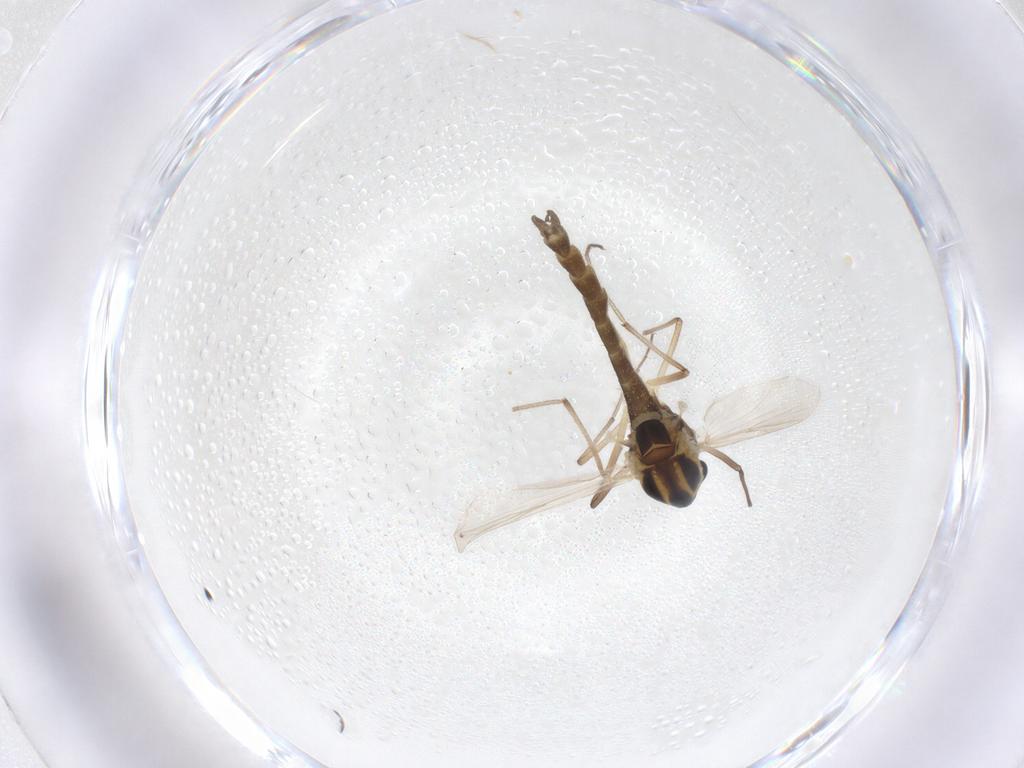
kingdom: Animalia
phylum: Arthropoda
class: Insecta
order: Diptera
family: Chironomidae
